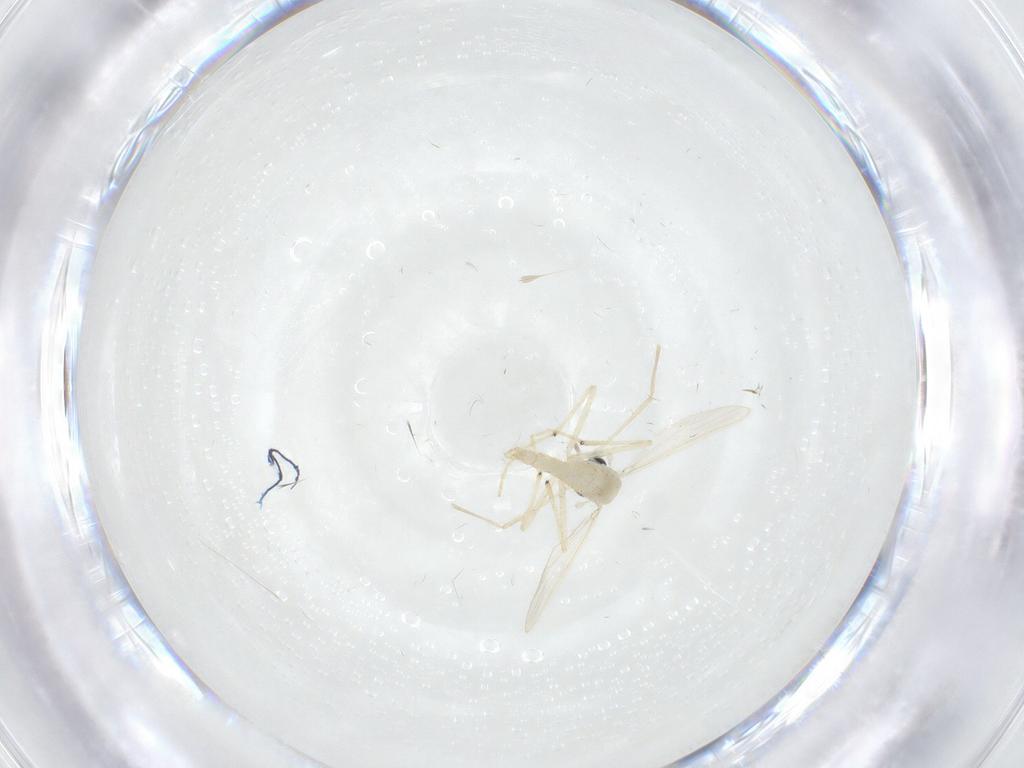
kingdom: Animalia
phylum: Arthropoda
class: Insecta
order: Diptera
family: Chironomidae
